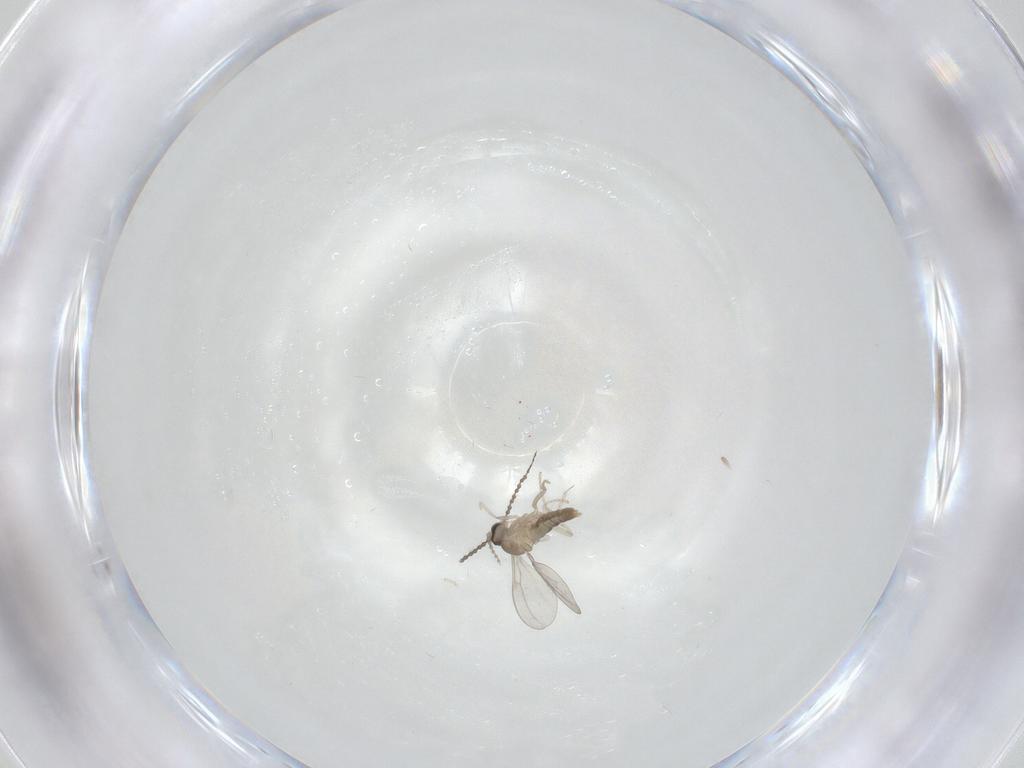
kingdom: Animalia
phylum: Arthropoda
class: Insecta
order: Diptera
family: Cecidomyiidae
